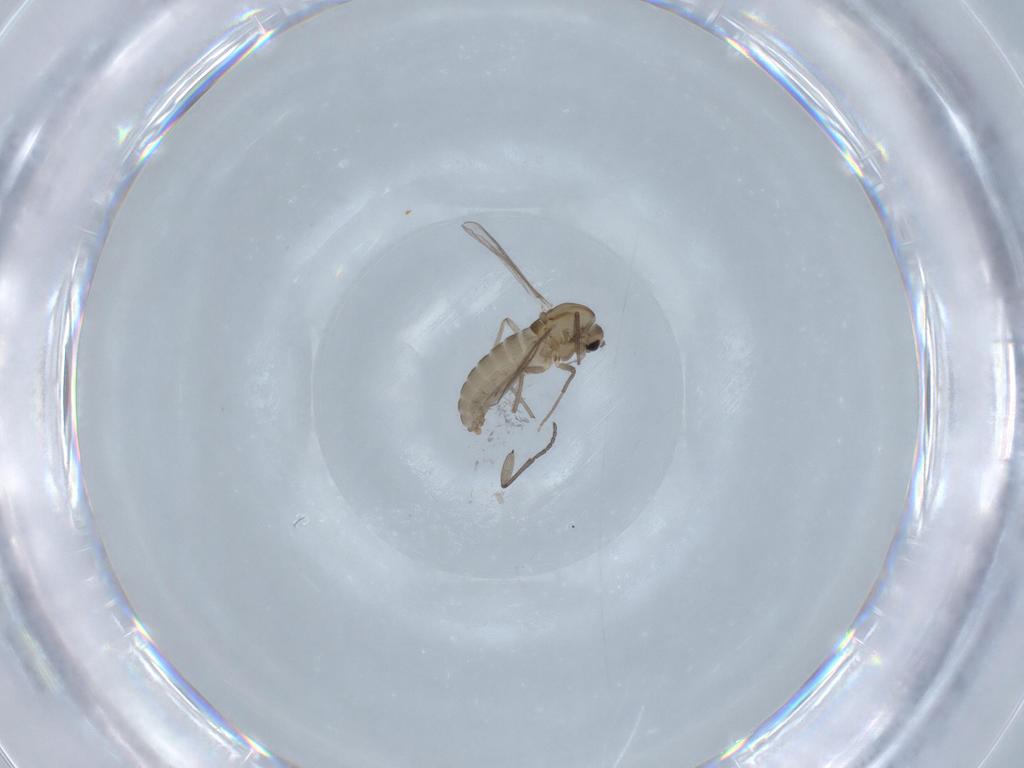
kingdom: Animalia
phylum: Arthropoda
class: Insecta
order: Diptera
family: Chironomidae
